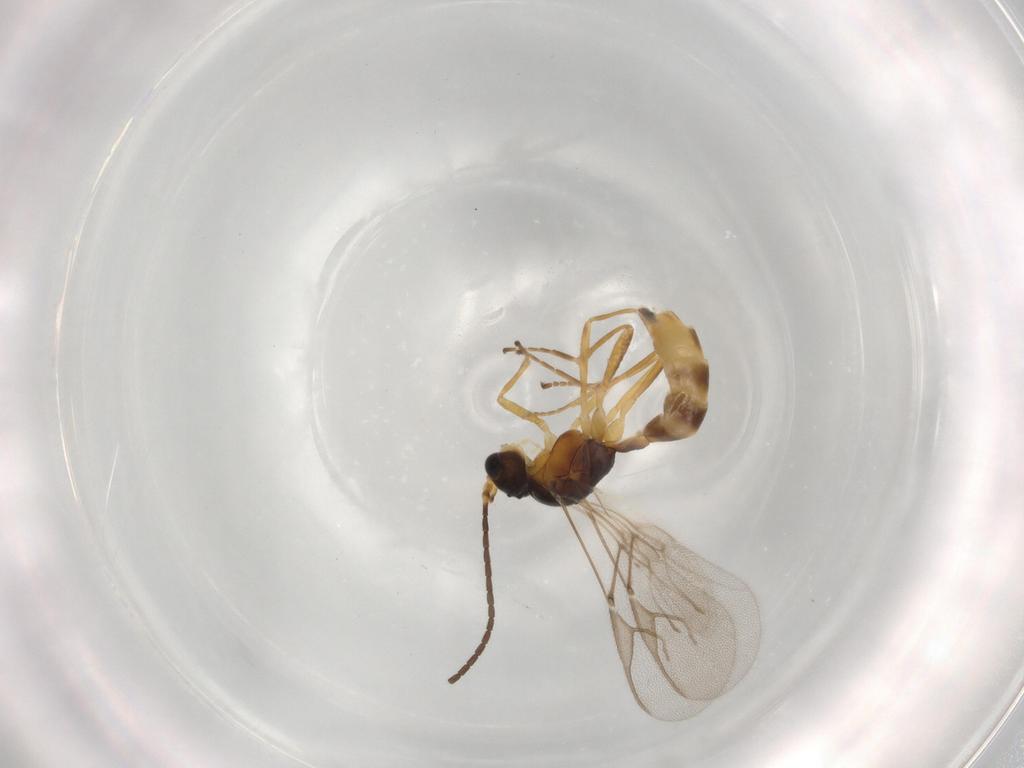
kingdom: Animalia
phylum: Arthropoda
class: Insecta
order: Hymenoptera
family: Braconidae
